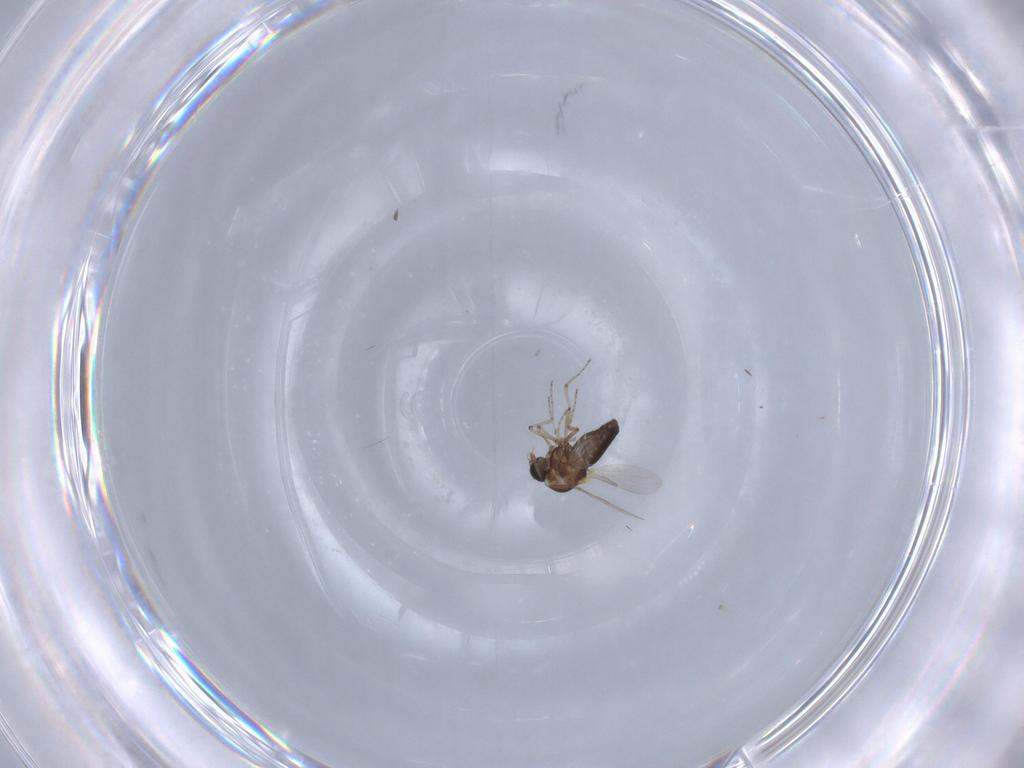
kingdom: Animalia
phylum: Arthropoda
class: Insecta
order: Diptera
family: Ceratopogonidae
